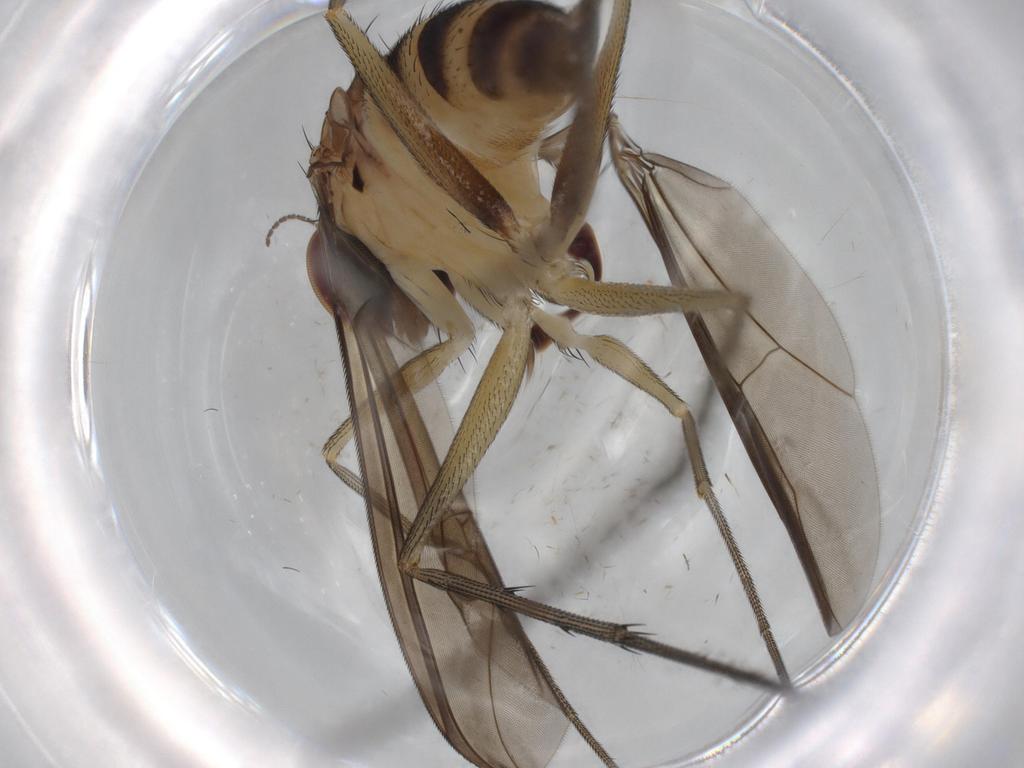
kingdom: Animalia
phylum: Arthropoda
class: Insecta
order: Diptera
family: Dolichopodidae
